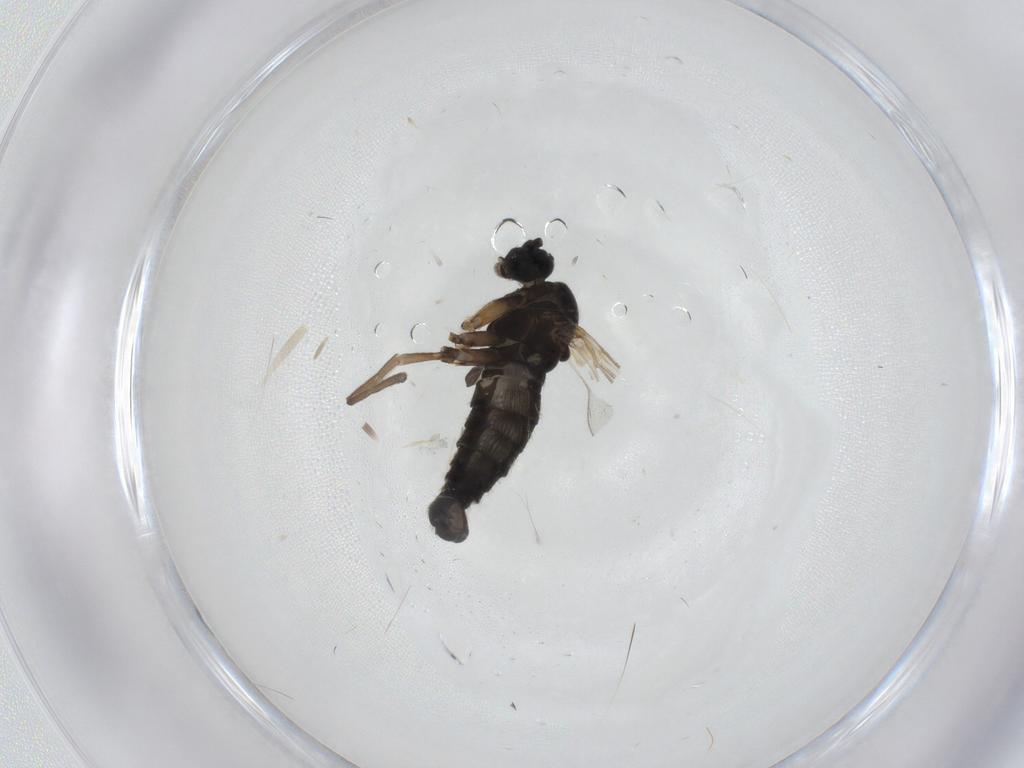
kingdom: Animalia
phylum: Arthropoda
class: Insecta
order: Diptera
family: Sciaridae
